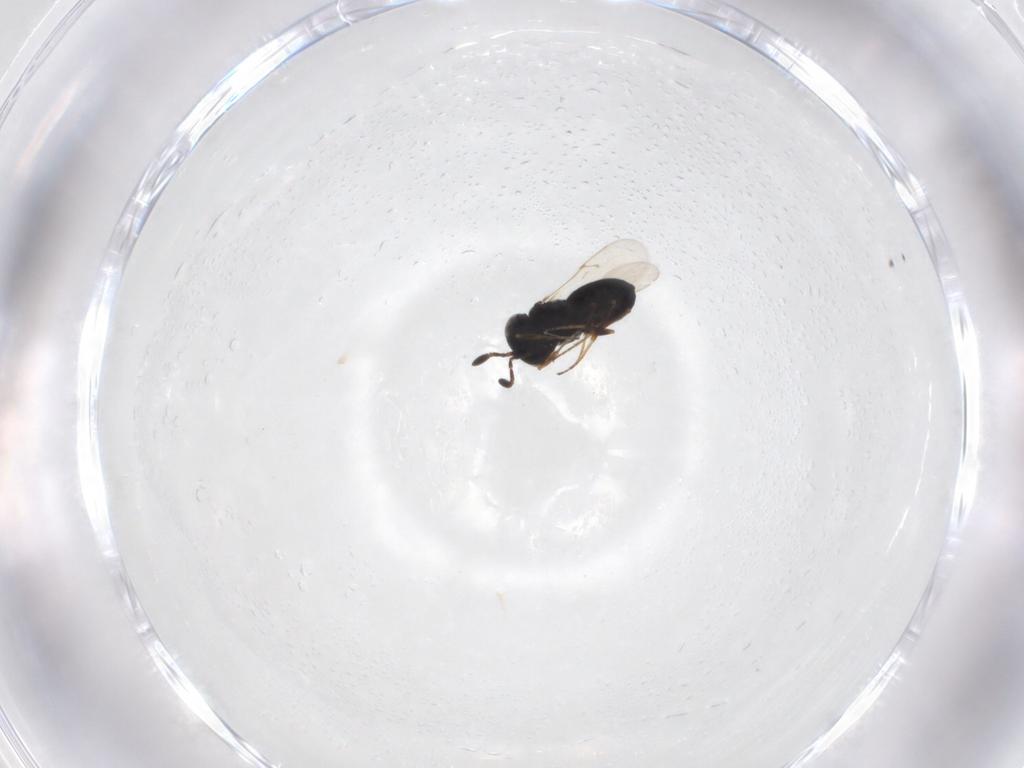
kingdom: Animalia
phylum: Arthropoda
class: Insecta
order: Hymenoptera
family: Scelionidae
